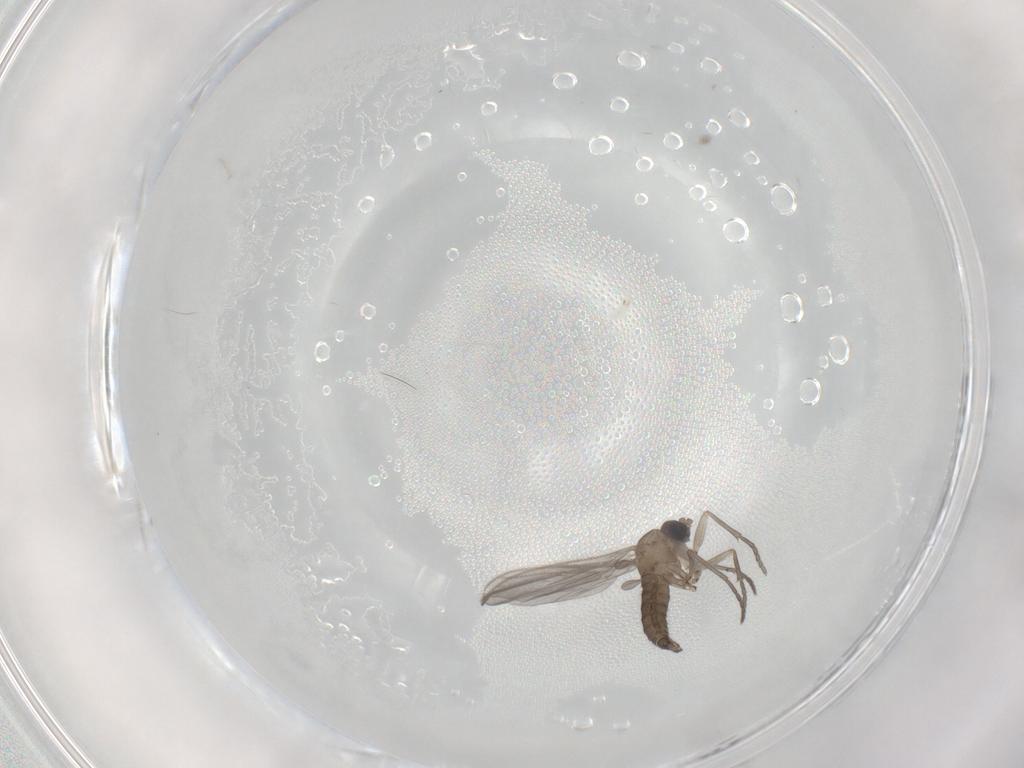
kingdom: Animalia
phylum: Arthropoda
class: Insecta
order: Diptera
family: Sciaridae
